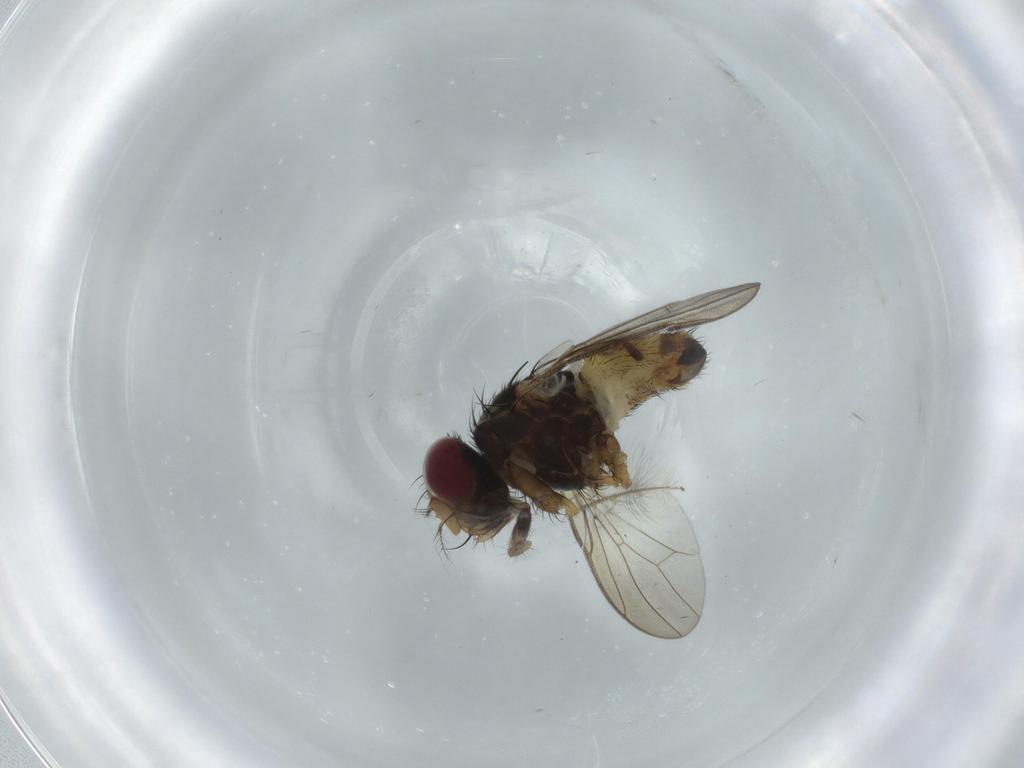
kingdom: Animalia
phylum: Arthropoda
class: Insecta
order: Diptera
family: Anthomyiidae
